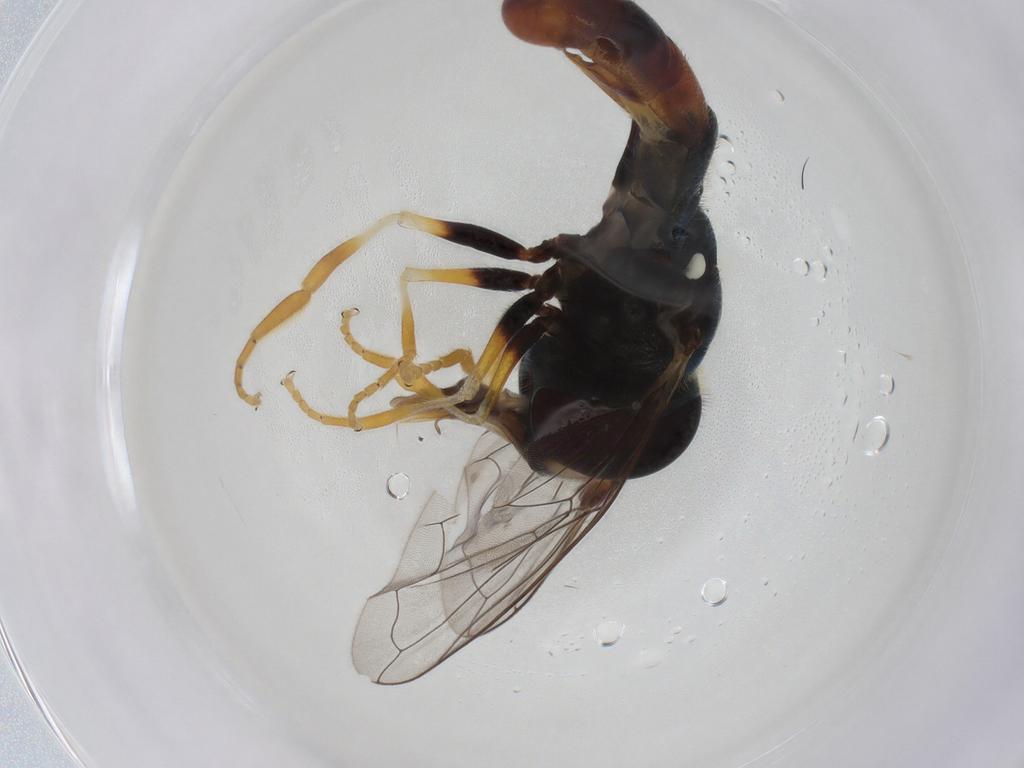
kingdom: Animalia
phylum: Arthropoda
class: Insecta
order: Diptera
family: Syrphidae
